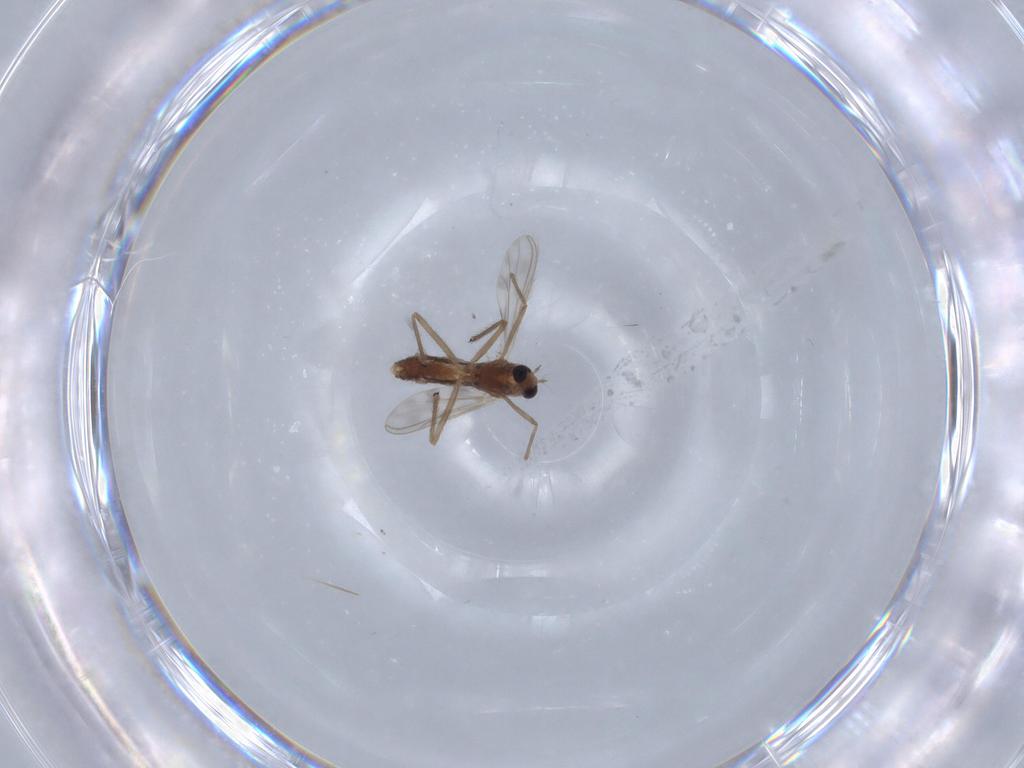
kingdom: Animalia
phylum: Arthropoda
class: Insecta
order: Diptera
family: Chironomidae
